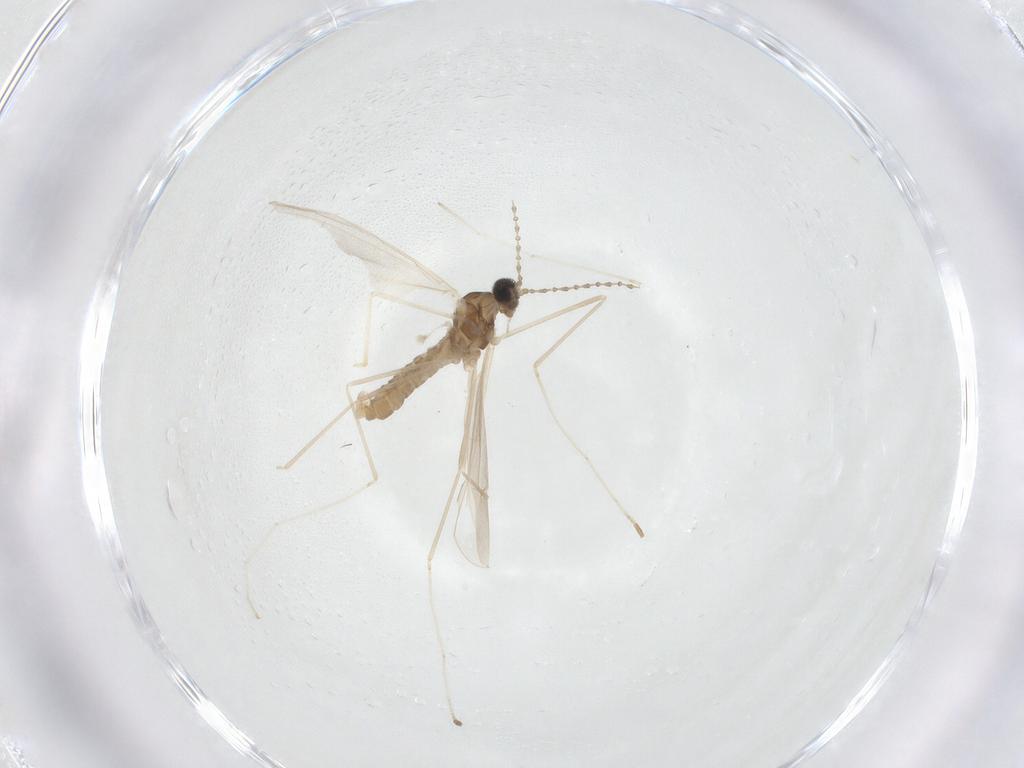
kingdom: Animalia
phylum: Arthropoda
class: Insecta
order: Diptera
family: Cecidomyiidae
